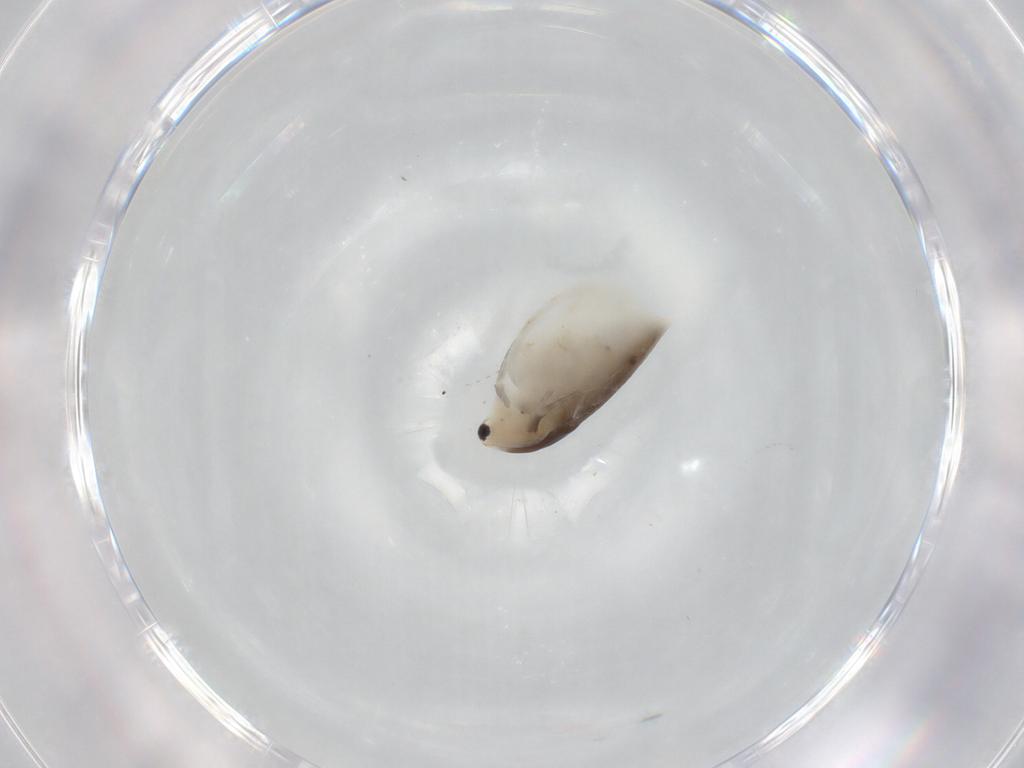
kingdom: Animalia
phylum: Arthropoda
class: Branchiopoda
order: Diplostraca
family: Daphniidae
